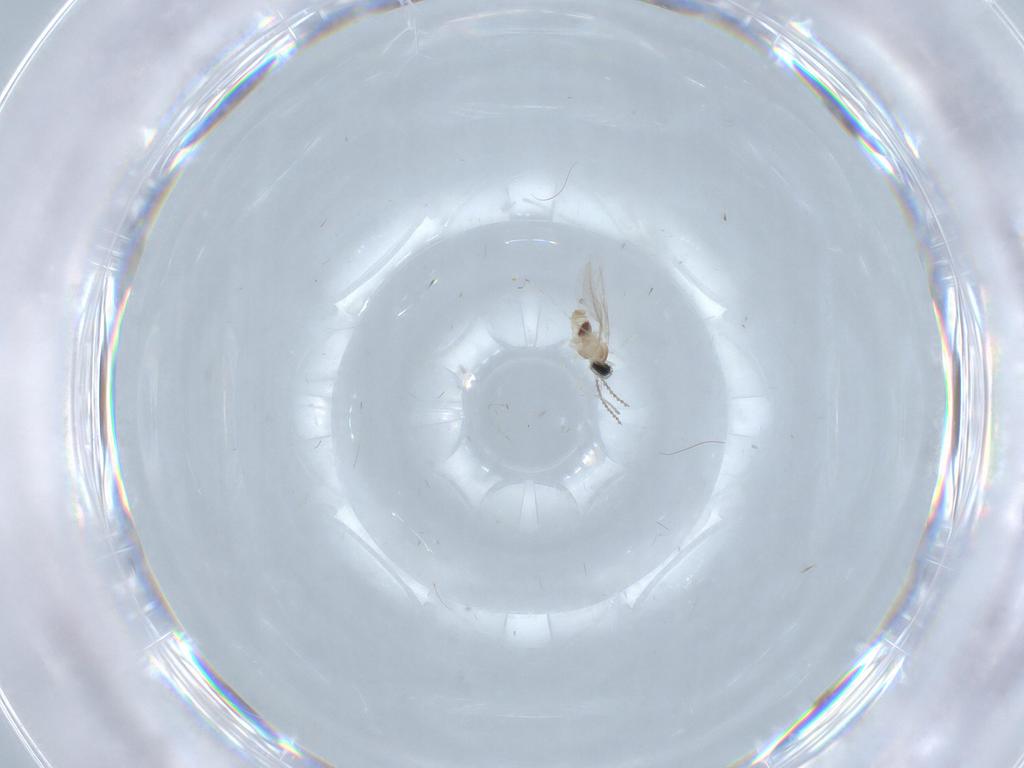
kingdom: Animalia
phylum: Arthropoda
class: Insecta
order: Diptera
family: Cecidomyiidae
